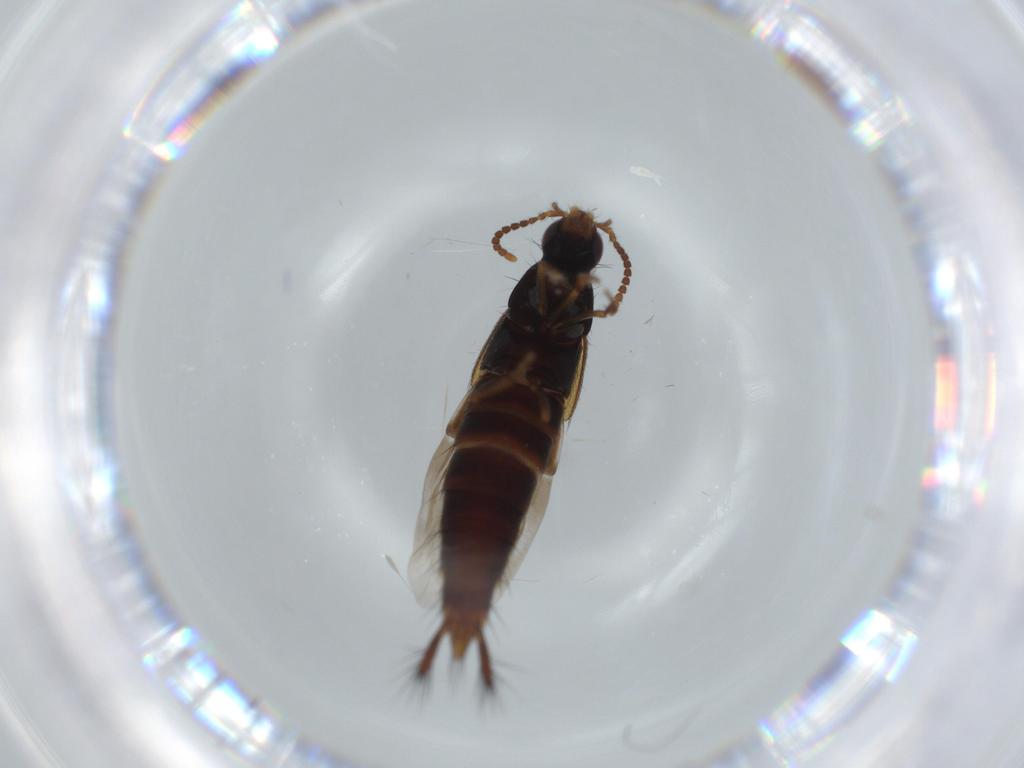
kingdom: Animalia
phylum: Arthropoda
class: Insecta
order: Coleoptera
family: Staphylinidae
